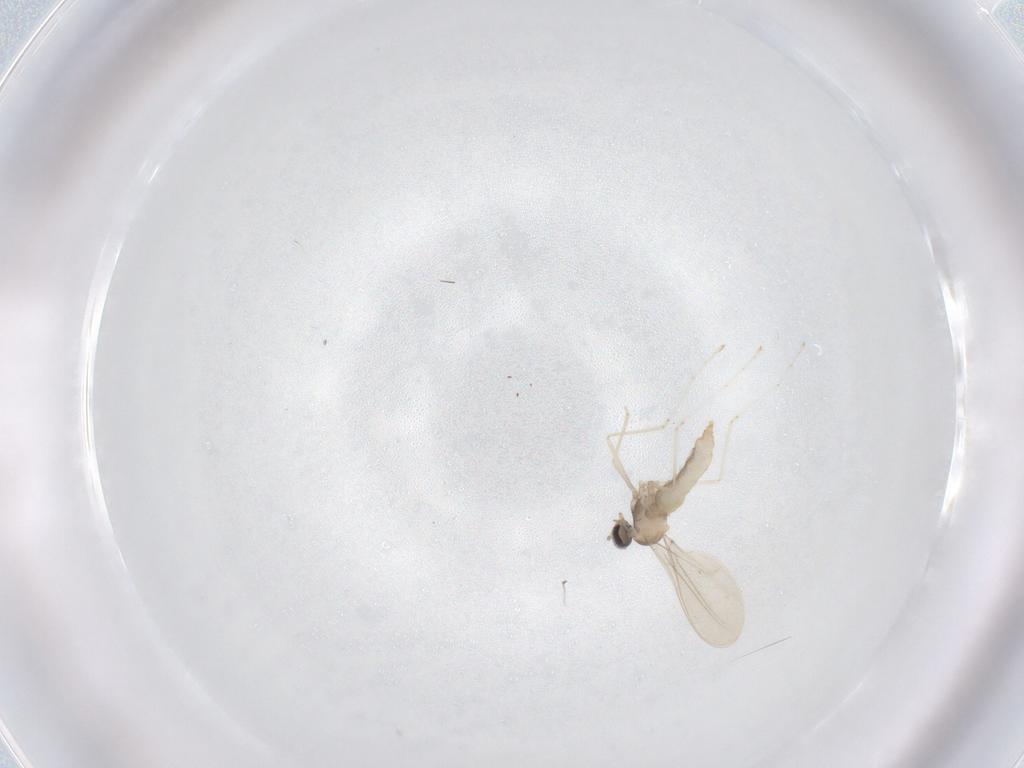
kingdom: Animalia
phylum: Arthropoda
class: Insecta
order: Diptera
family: Cecidomyiidae
